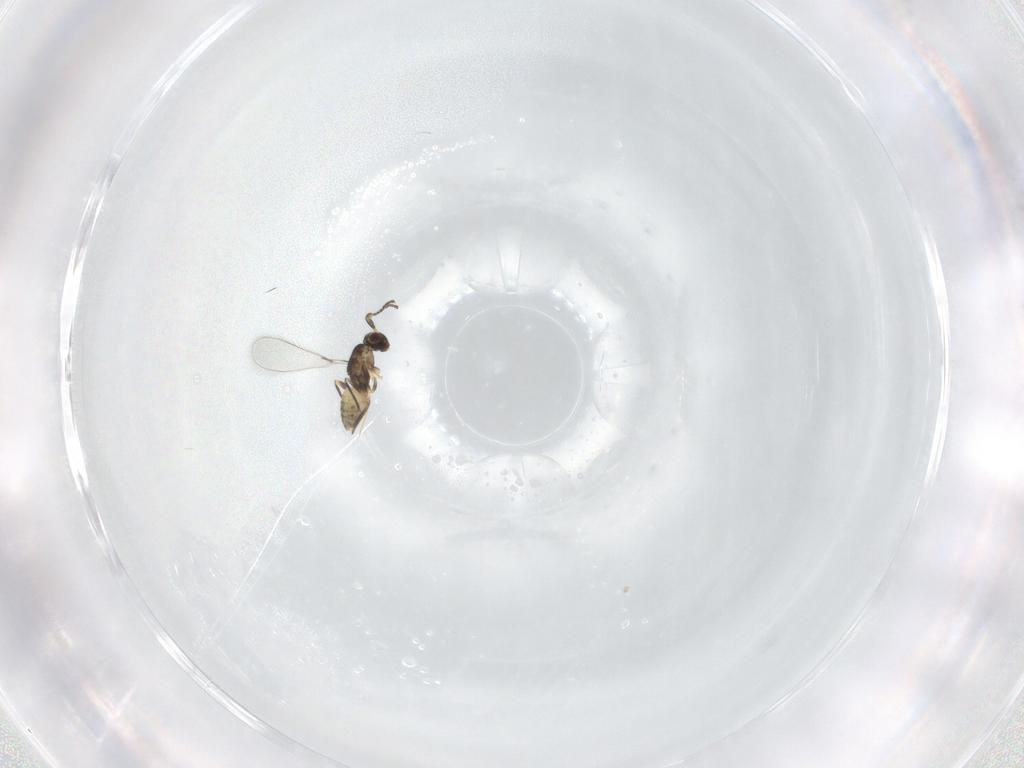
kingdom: Animalia
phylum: Arthropoda
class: Insecta
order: Hymenoptera
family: Mymaridae
